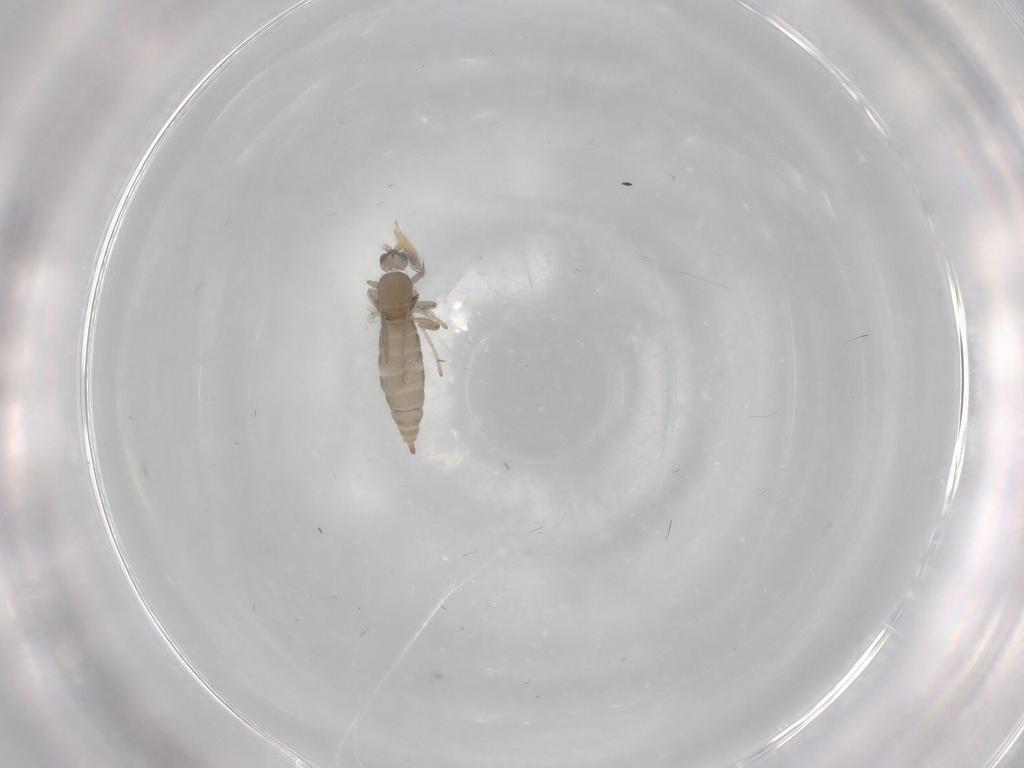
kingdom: Animalia
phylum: Arthropoda
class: Insecta
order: Diptera
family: Cecidomyiidae
